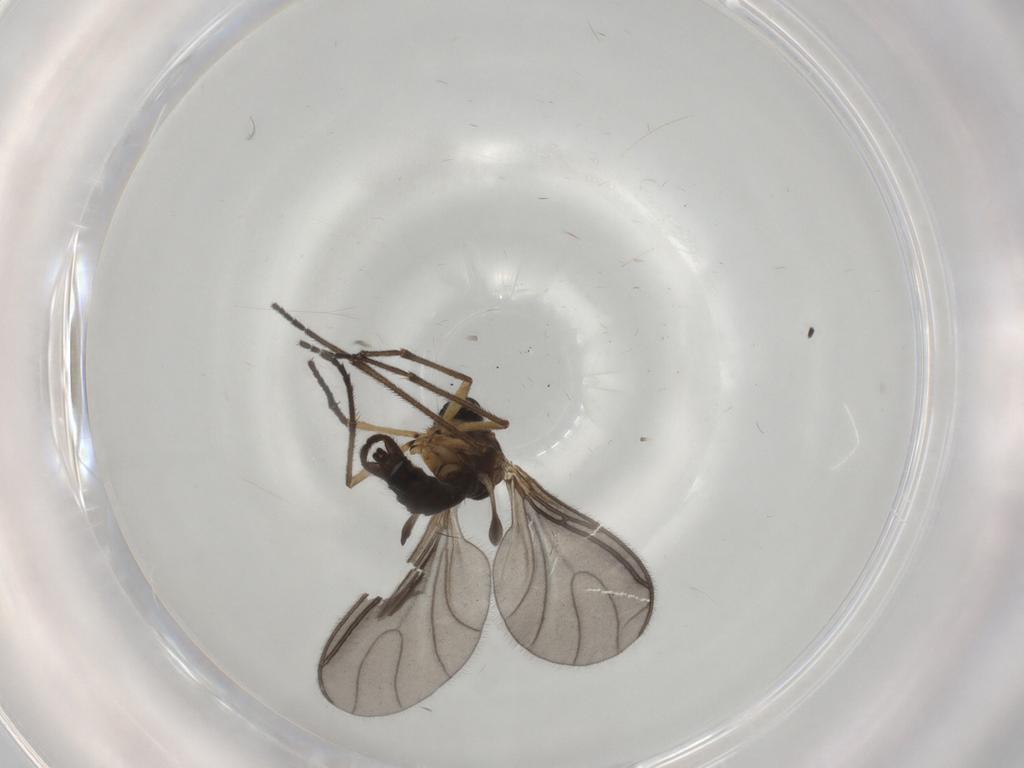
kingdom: Animalia
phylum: Arthropoda
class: Insecta
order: Diptera
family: Sciaridae
